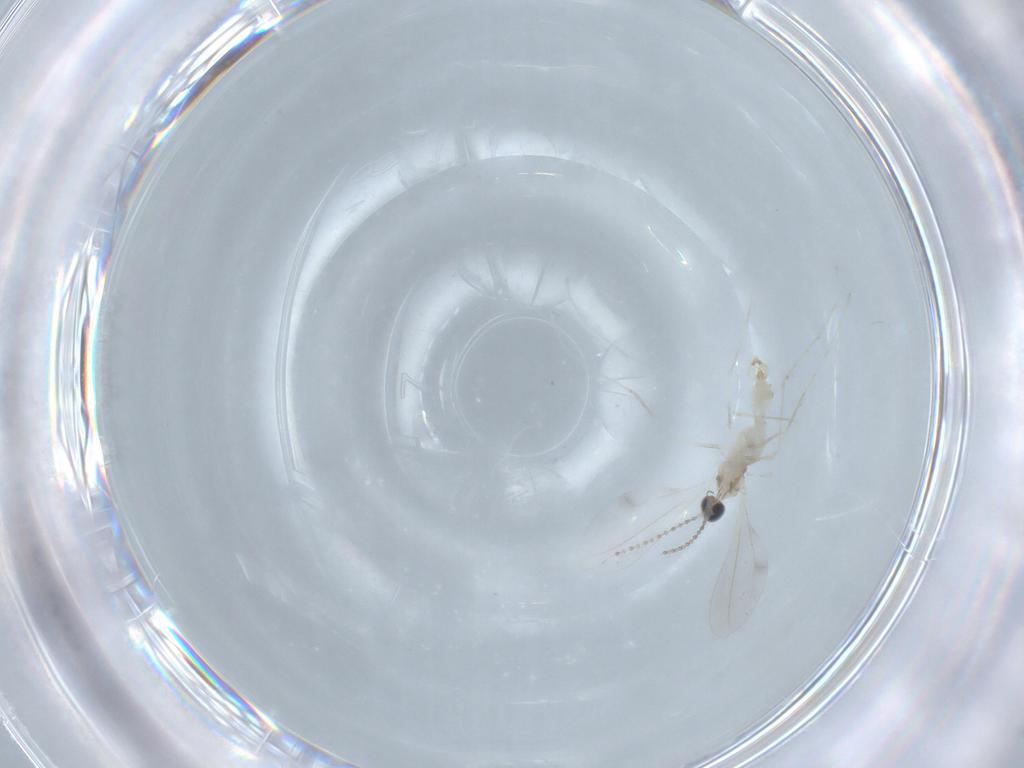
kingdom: Animalia
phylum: Arthropoda
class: Insecta
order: Diptera
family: Cecidomyiidae
